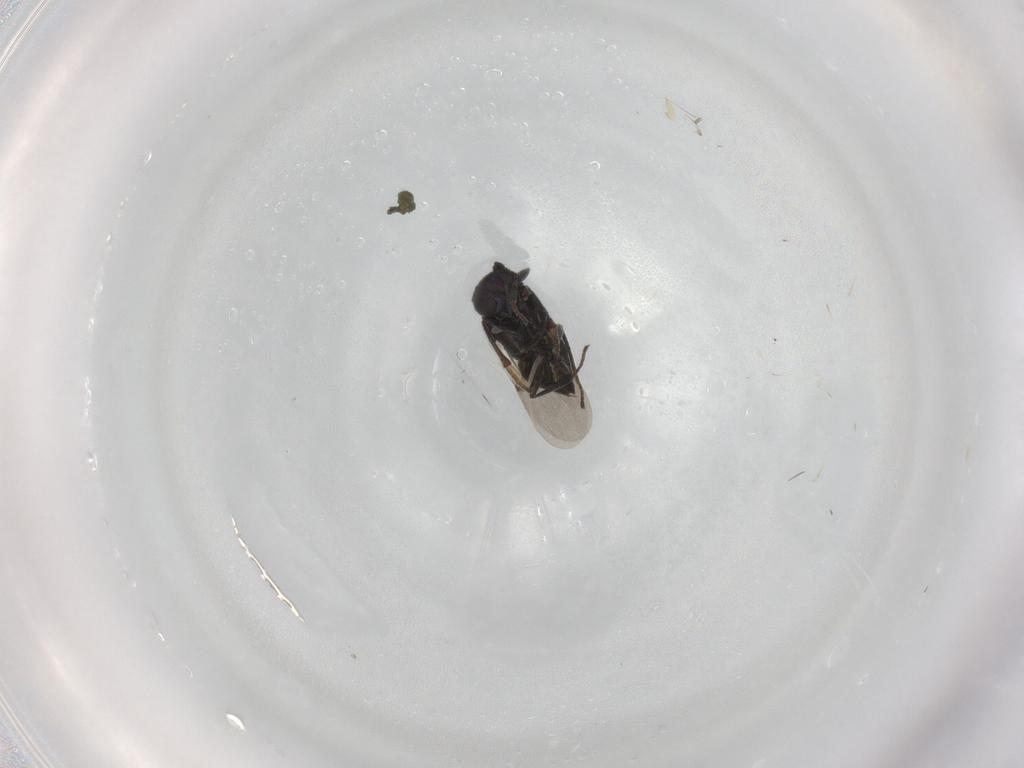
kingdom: Animalia
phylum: Arthropoda
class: Insecta
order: Hymenoptera
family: Encyrtidae
